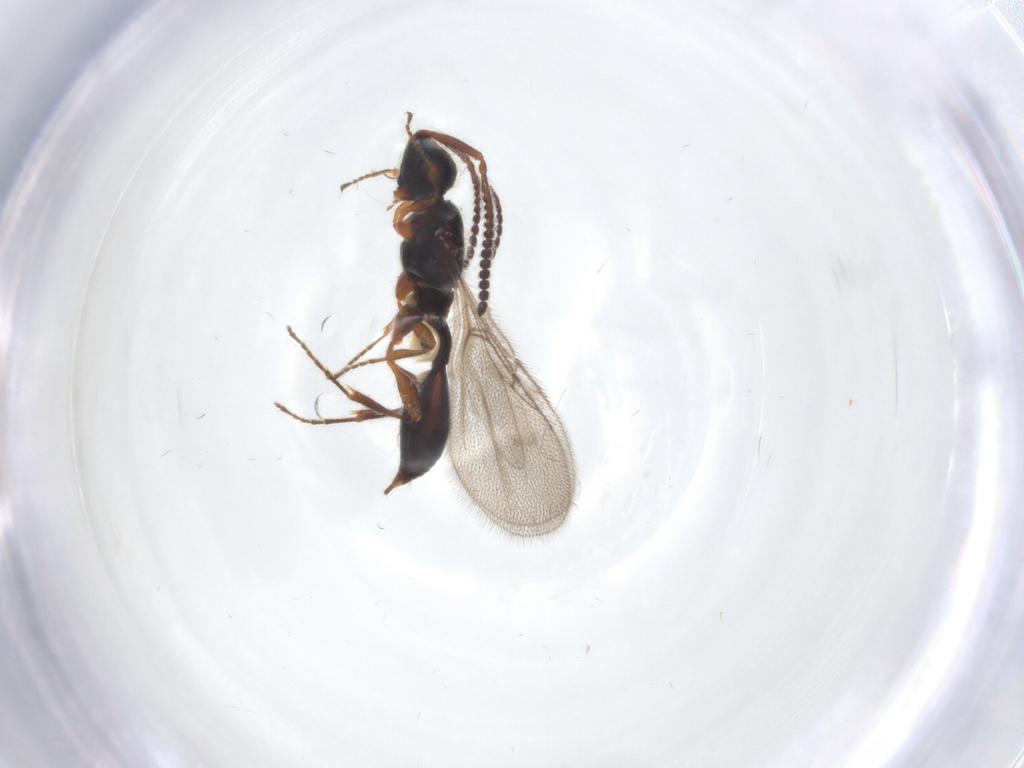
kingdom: Animalia
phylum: Arthropoda
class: Insecta
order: Hymenoptera
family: Diapriidae
